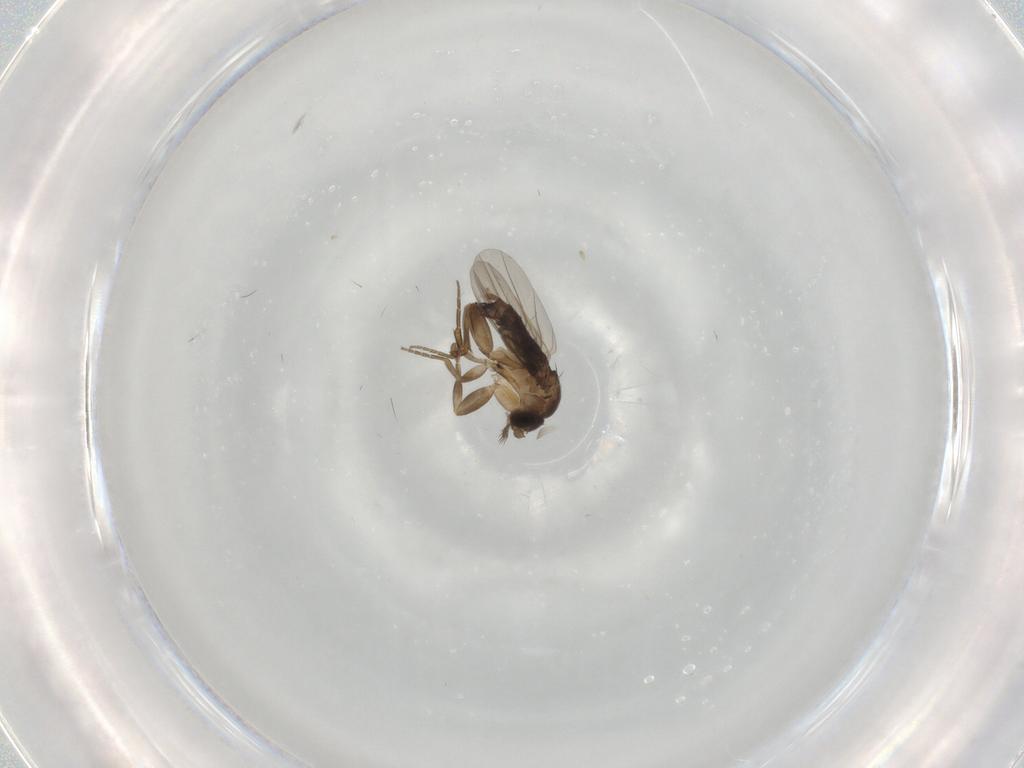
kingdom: Animalia
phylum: Arthropoda
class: Insecta
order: Diptera
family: Phoridae
